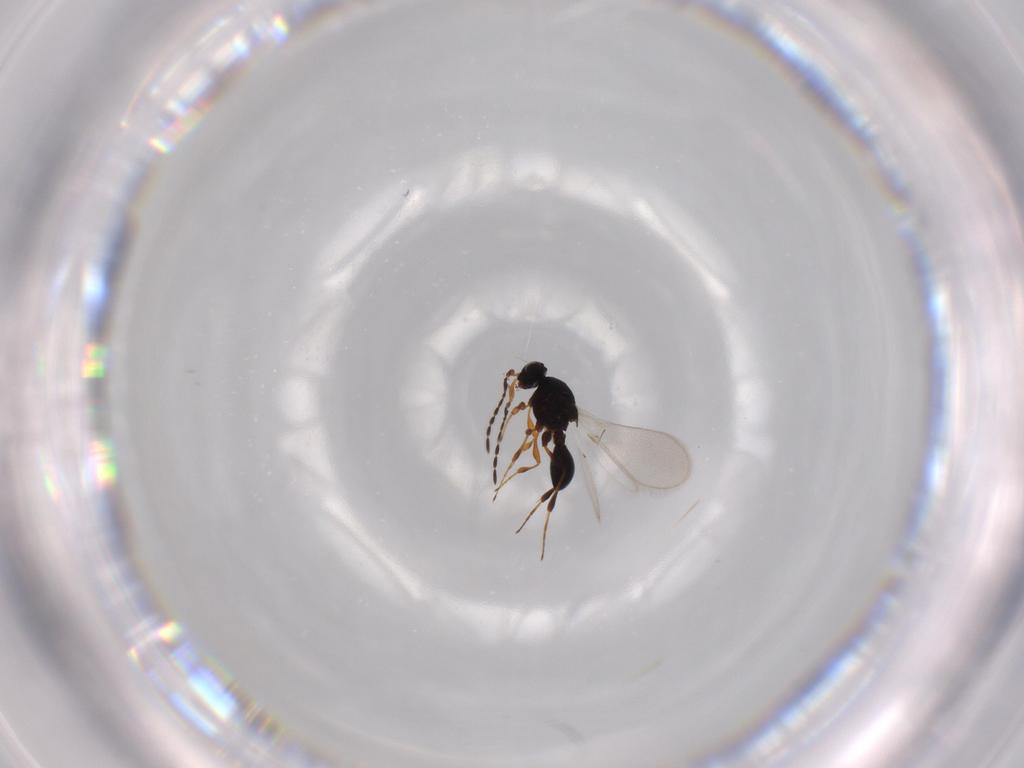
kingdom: Animalia
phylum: Arthropoda
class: Insecta
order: Hymenoptera
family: Platygastridae
